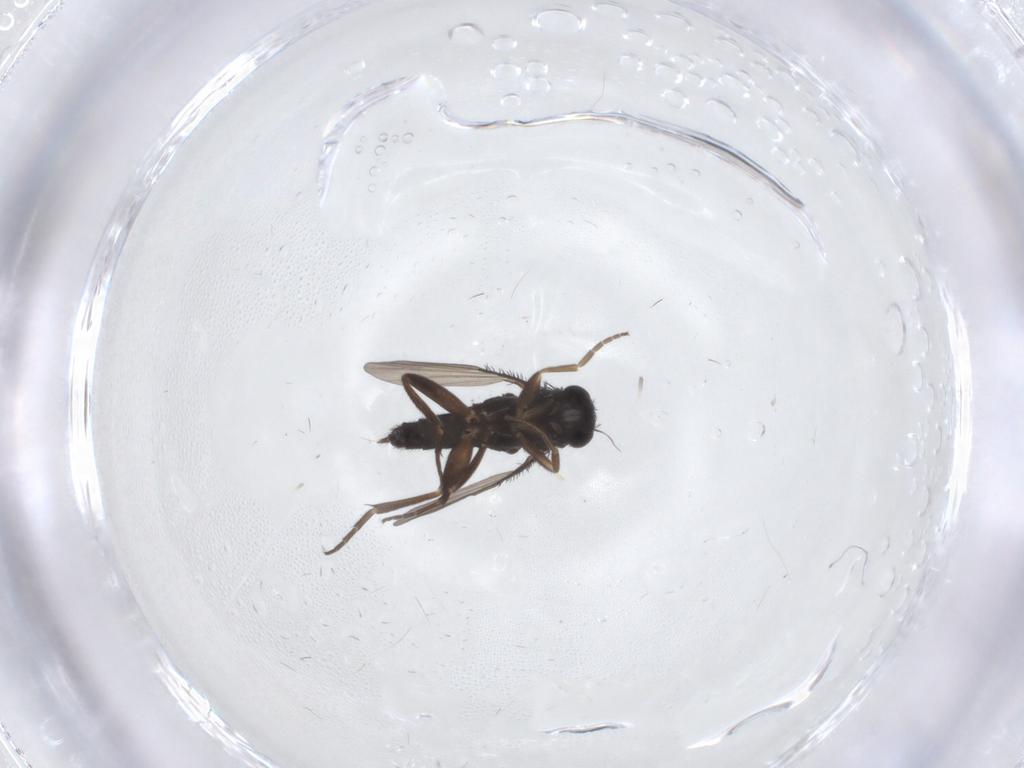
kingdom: Animalia
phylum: Arthropoda
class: Insecta
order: Diptera
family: Phoridae
